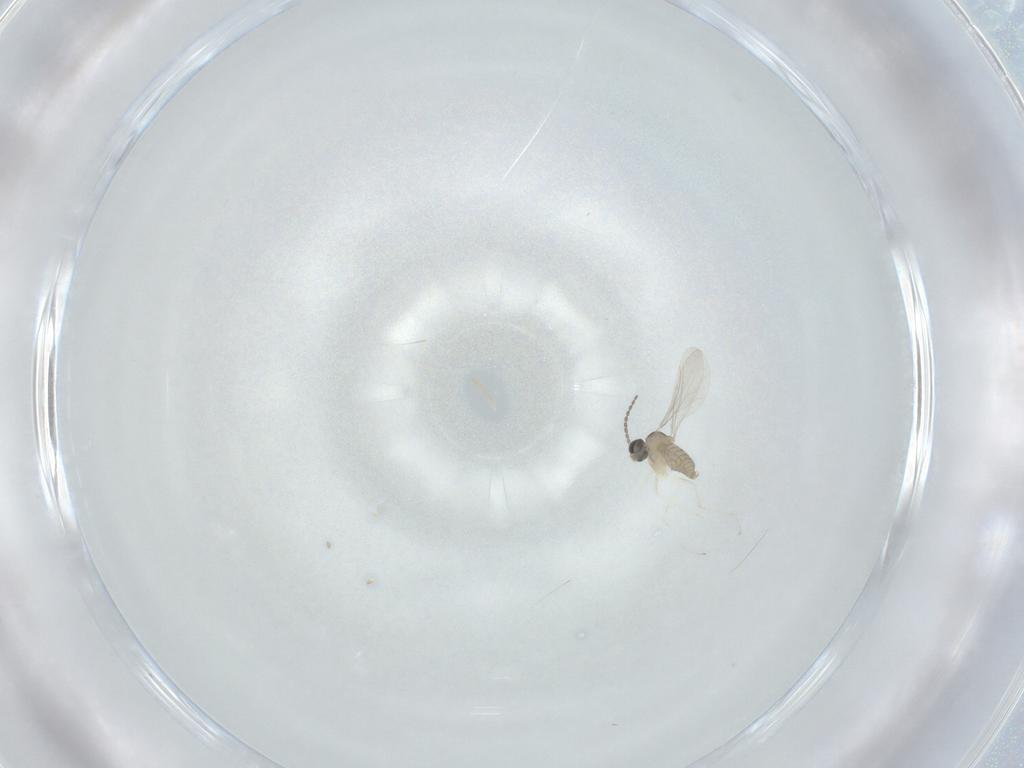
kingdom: Animalia
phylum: Arthropoda
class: Insecta
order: Diptera
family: Cecidomyiidae
